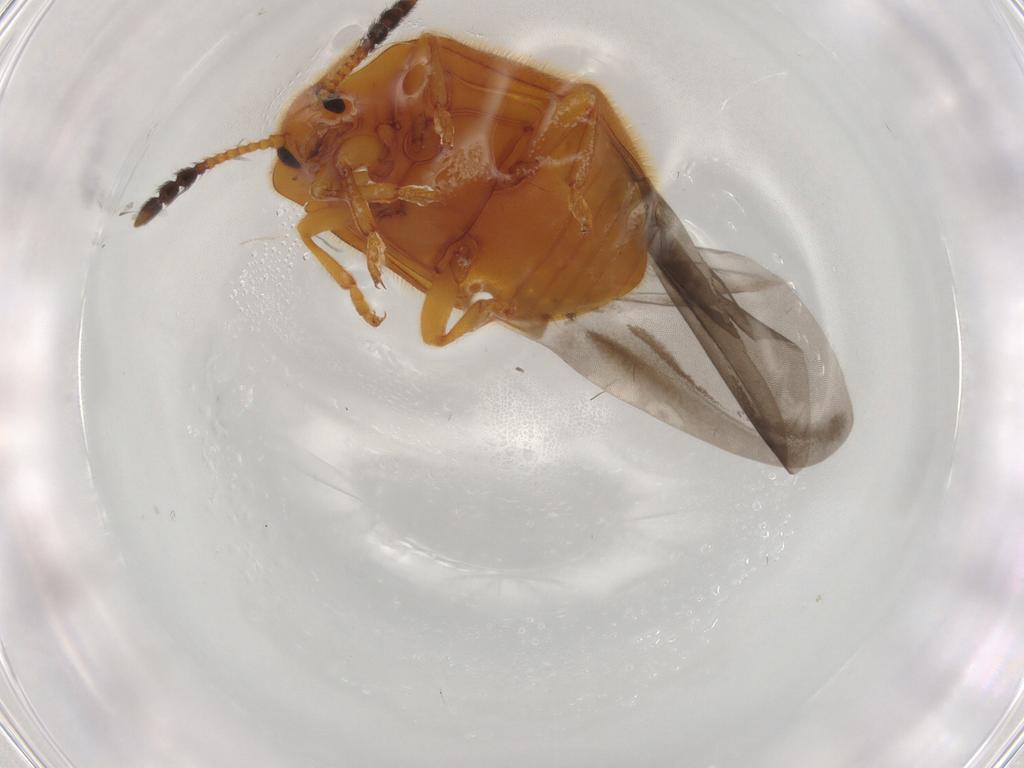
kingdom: Animalia
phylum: Arthropoda
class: Insecta
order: Coleoptera
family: Endomychidae
